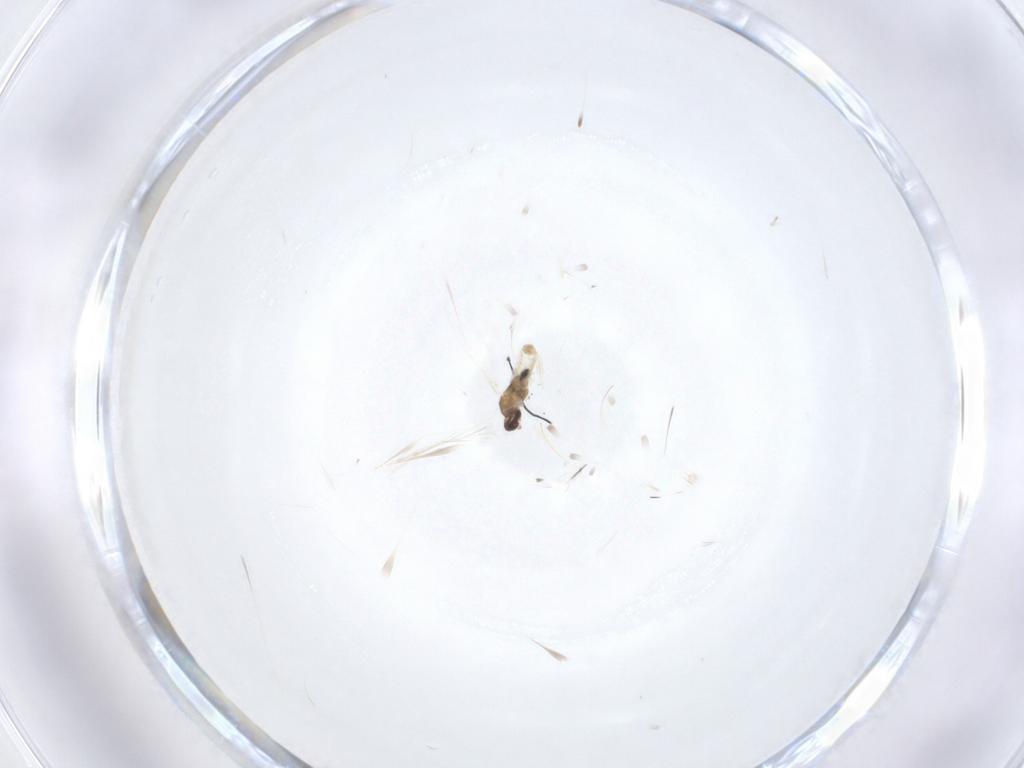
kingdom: Animalia
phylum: Arthropoda
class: Insecta
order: Diptera
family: Cecidomyiidae
